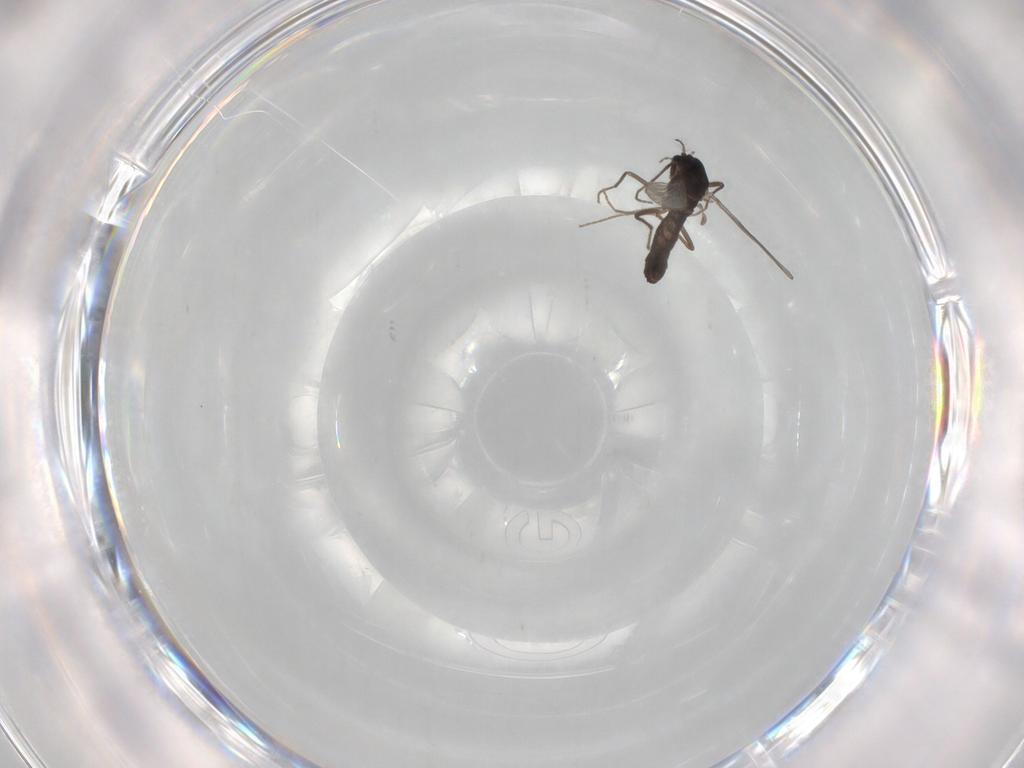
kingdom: Animalia
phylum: Arthropoda
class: Insecta
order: Diptera
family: Chironomidae
